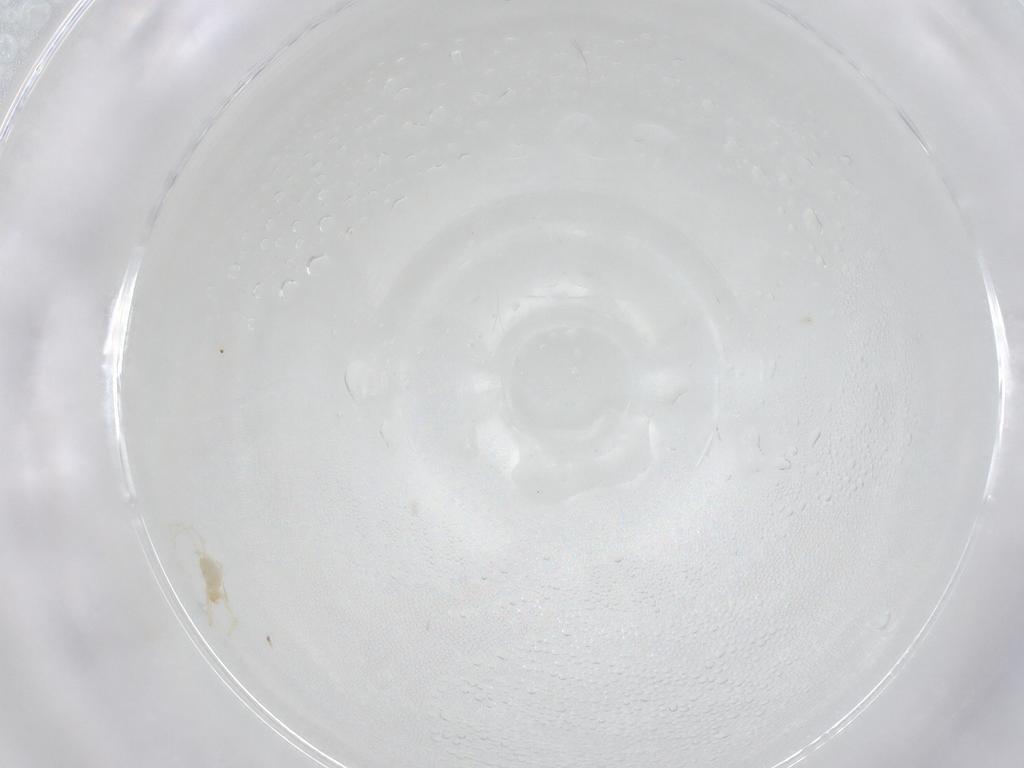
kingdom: Animalia
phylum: Arthropoda
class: Arachnida
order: Trombidiformes
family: Erythraeidae
